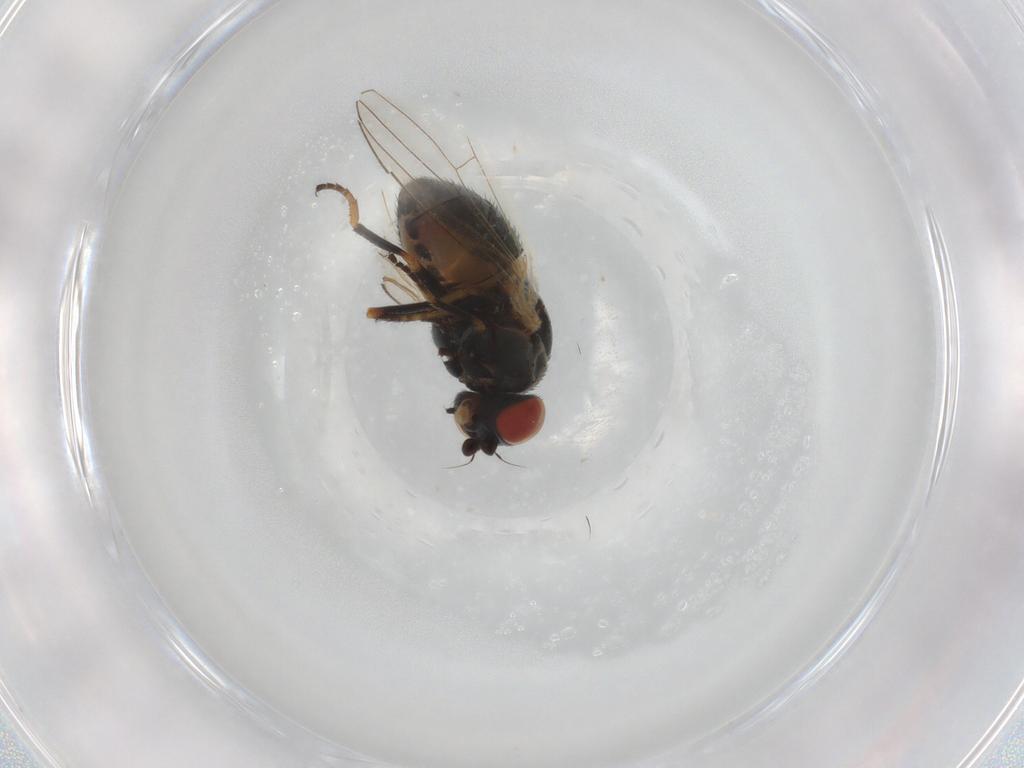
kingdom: Animalia
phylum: Arthropoda
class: Insecta
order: Diptera
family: Chamaemyiidae
